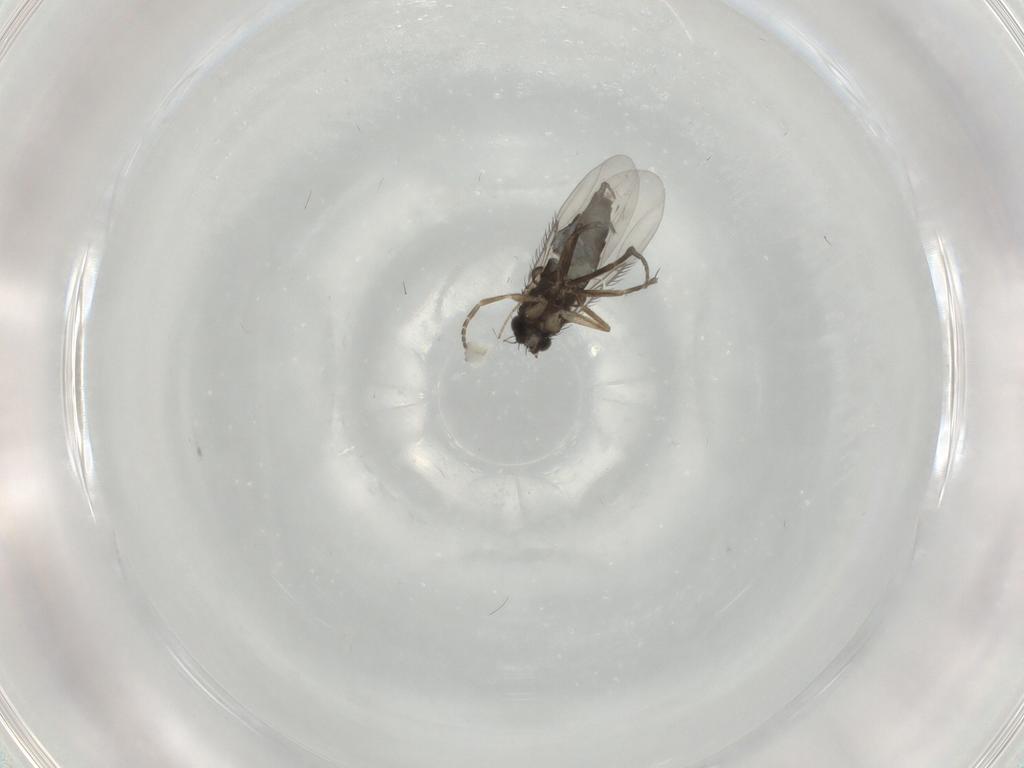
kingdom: Animalia
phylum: Arthropoda
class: Insecta
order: Diptera
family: Phoridae
